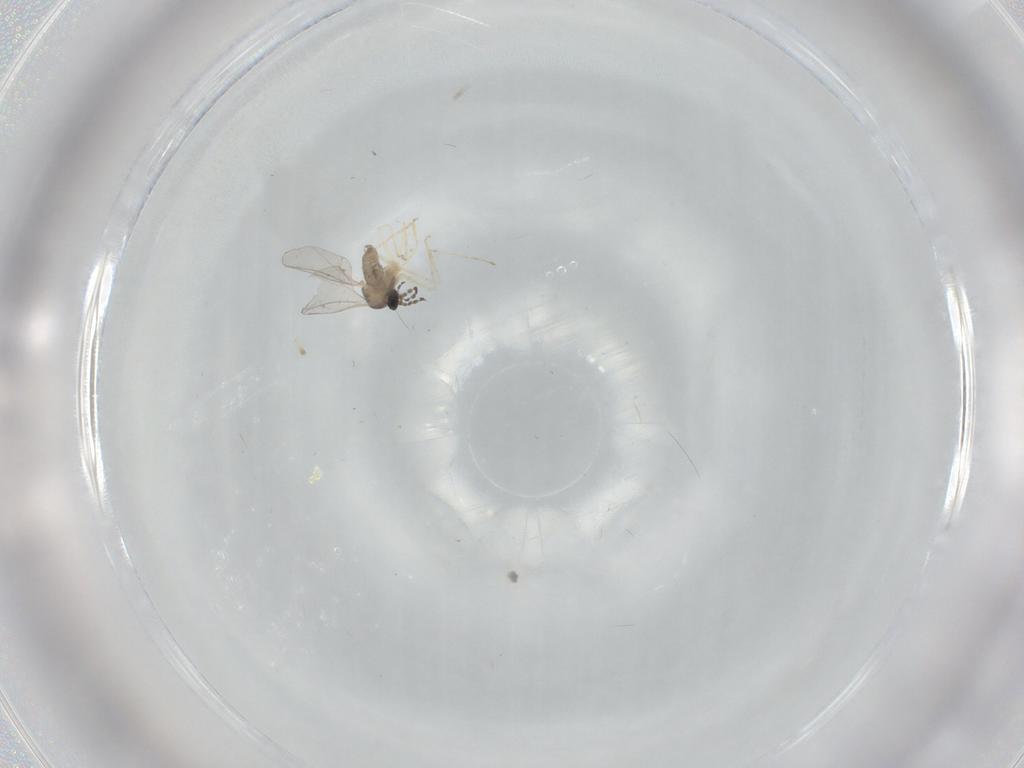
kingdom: Animalia
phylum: Arthropoda
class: Insecta
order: Diptera
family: Cecidomyiidae
